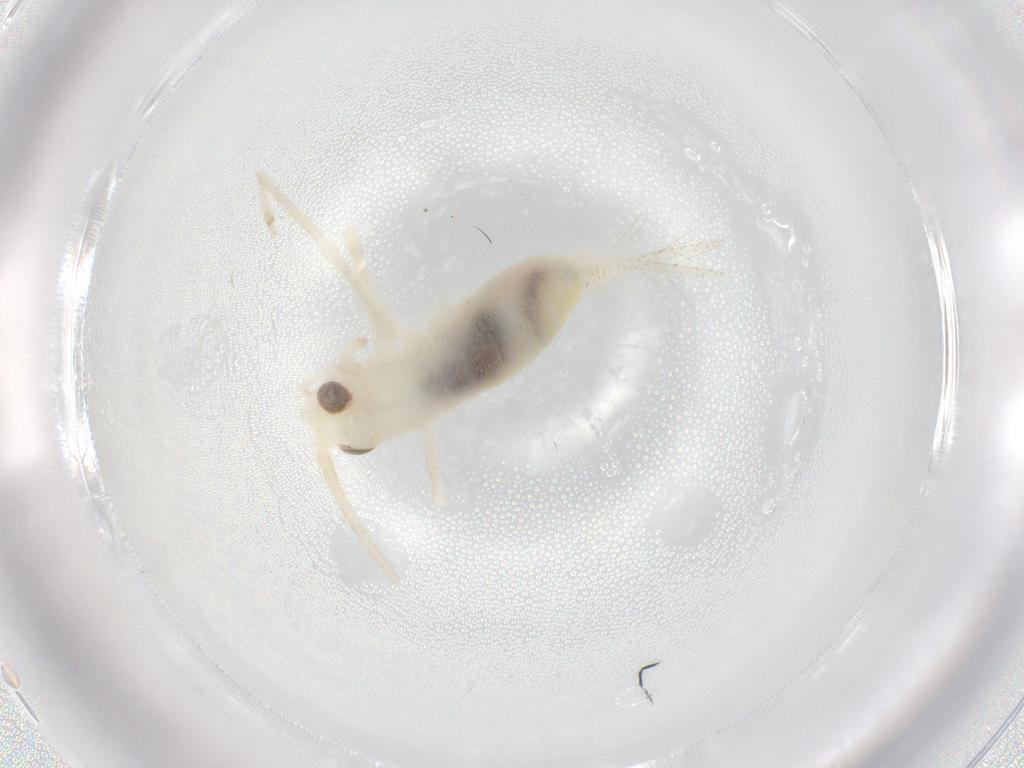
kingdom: Animalia
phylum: Arthropoda
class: Insecta
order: Orthoptera
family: Trigonidiidae
